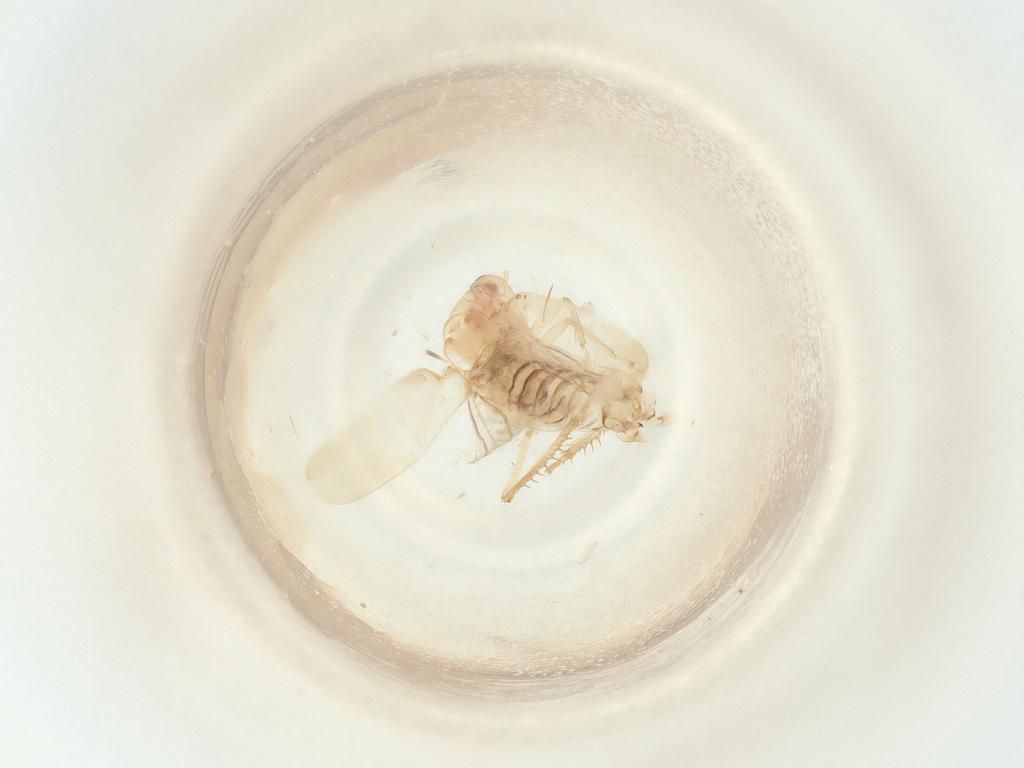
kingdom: Animalia
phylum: Arthropoda
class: Insecta
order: Hemiptera
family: Cicadellidae
